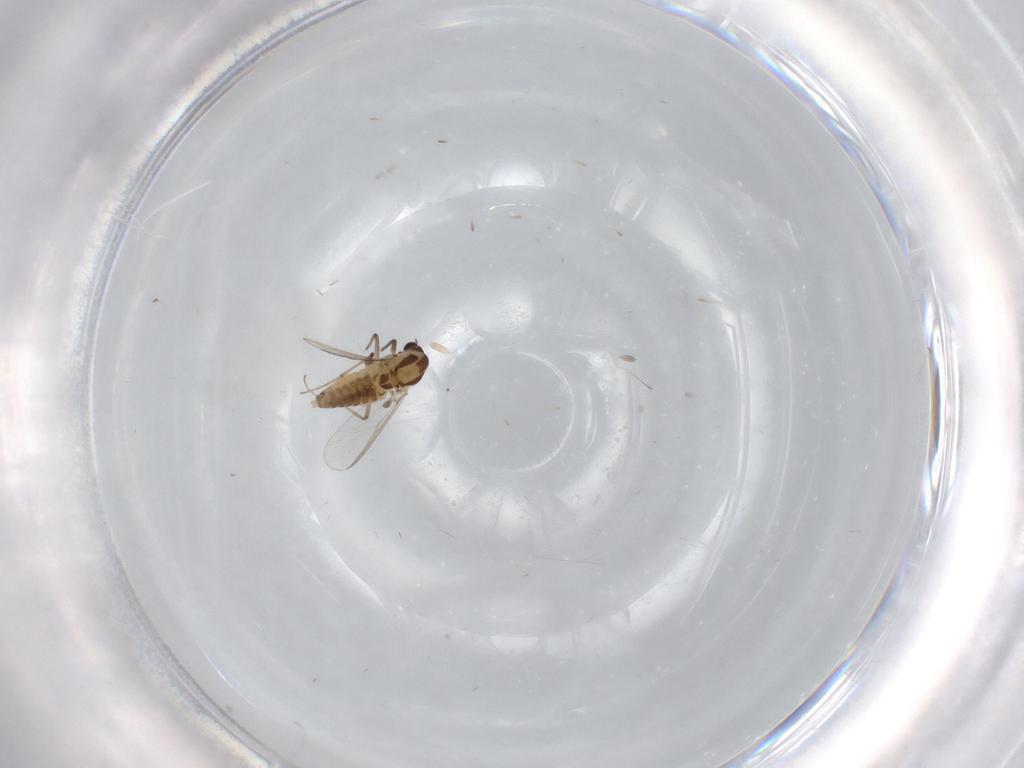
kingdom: Animalia
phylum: Arthropoda
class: Insecta
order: Diptera
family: Chironomidae
